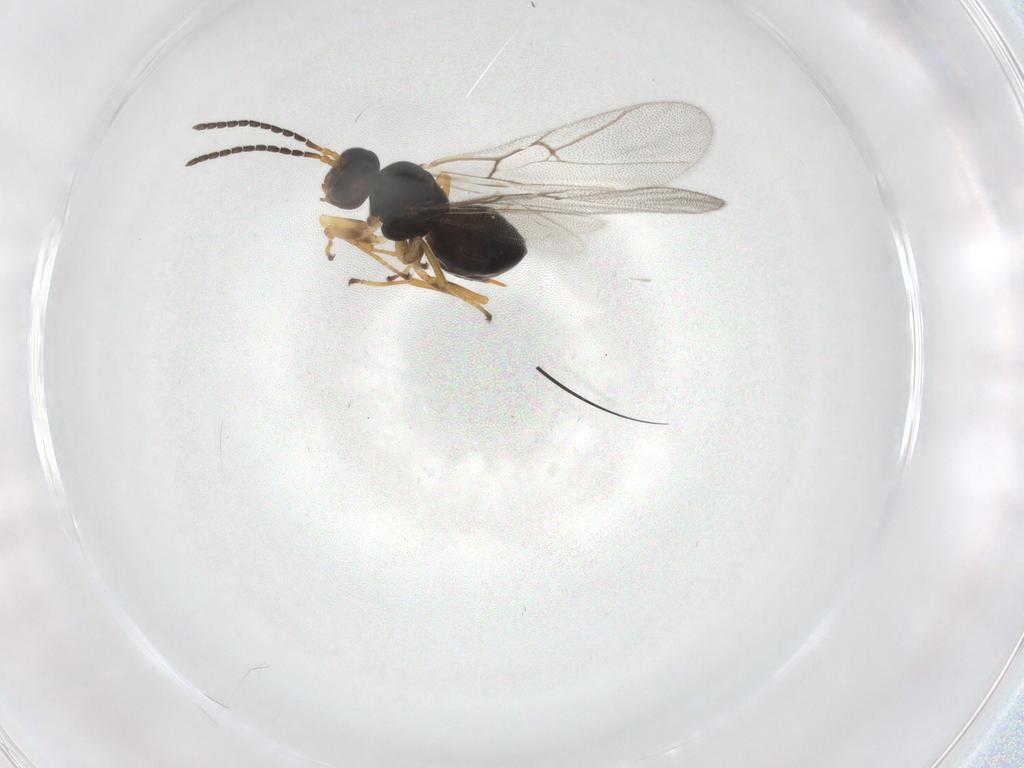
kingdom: Animalia
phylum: Arthropoda
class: Insecta
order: Hymenoptera
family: Cynipidae
